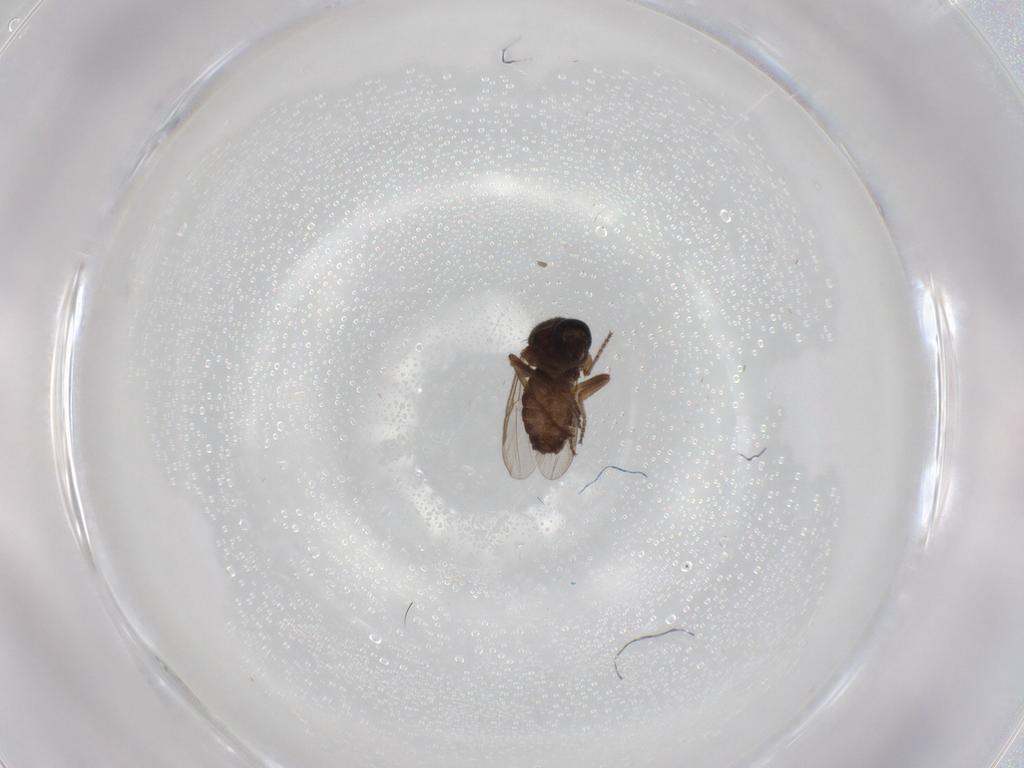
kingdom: Animalia
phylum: Arthropoda
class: Insecta
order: Diptera
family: Ceratopogonidae
